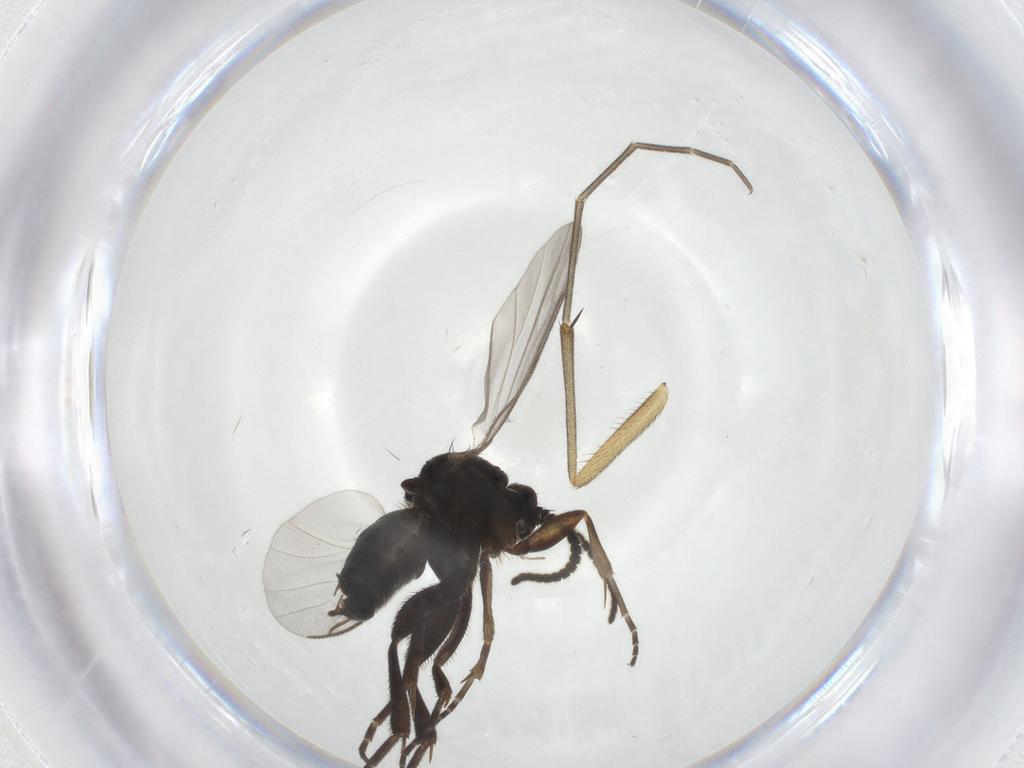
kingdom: Animalia
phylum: Arthropoda
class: Insecta
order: Diptera
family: Mycetophilidae
